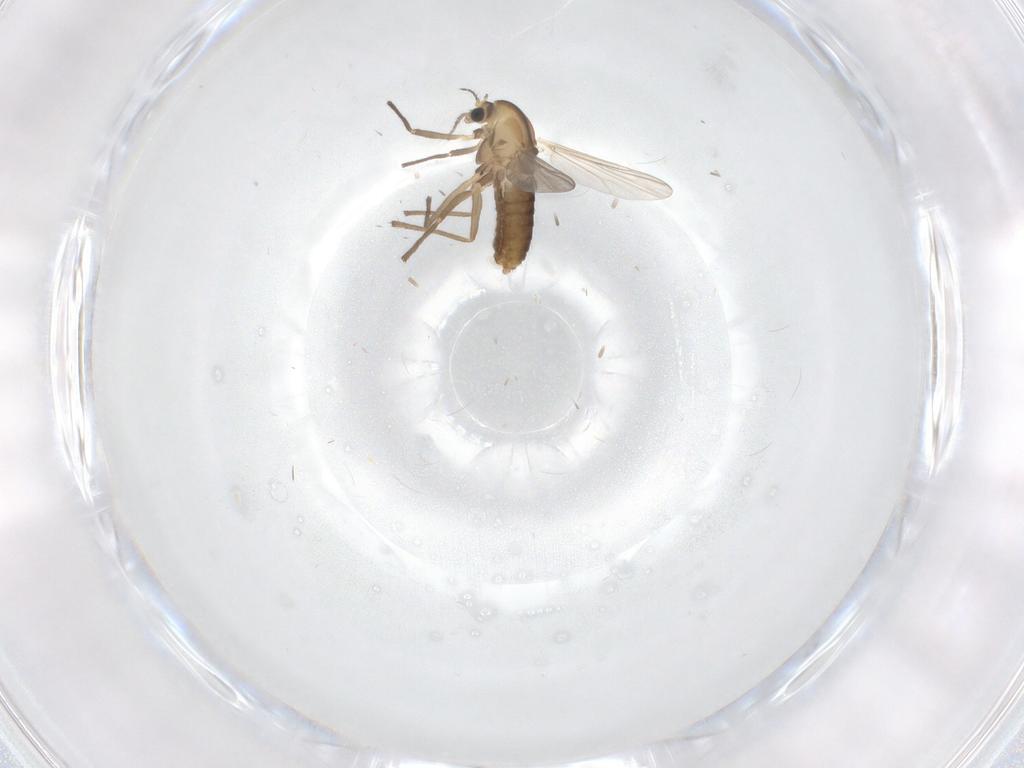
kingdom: Animalia
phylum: Arthropoda
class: Insecta
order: Diptera
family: Chironomidae
